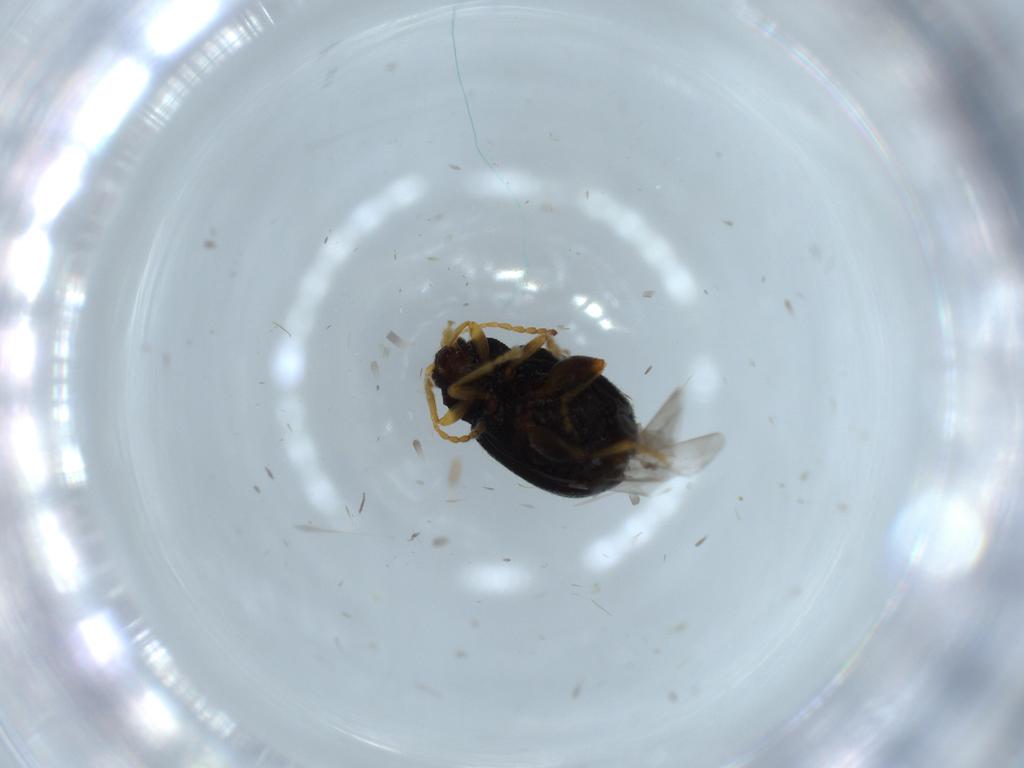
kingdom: Animalia
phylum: Arthropoda
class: Insecta
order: Coleoptera
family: Chrysomelidae
